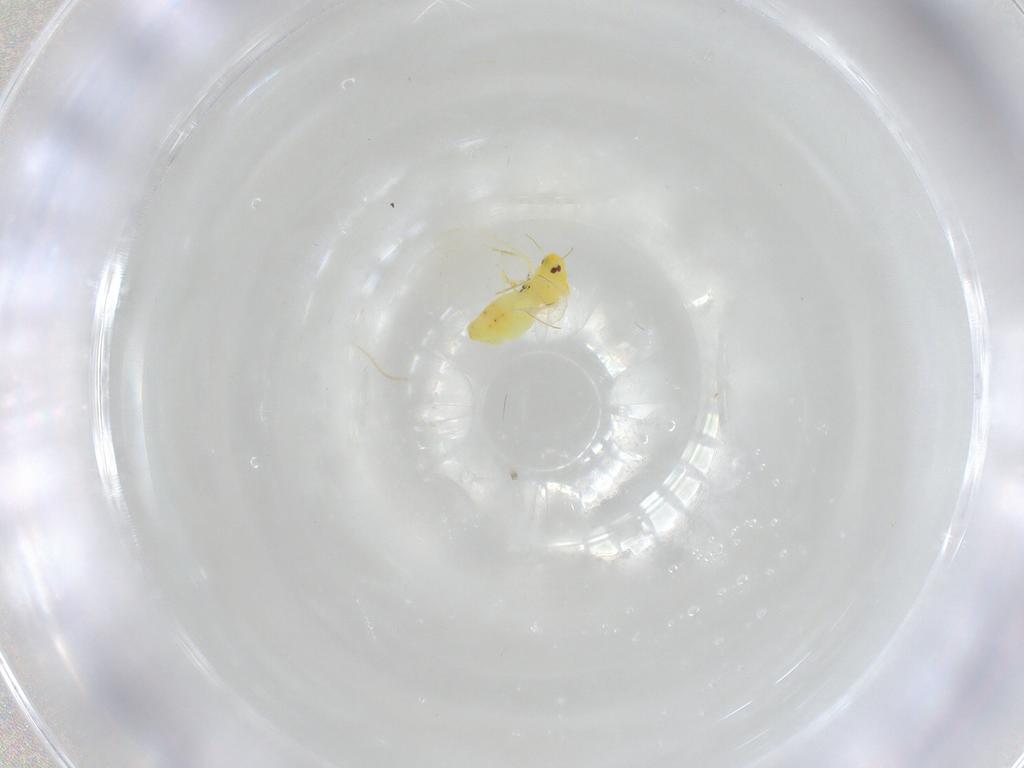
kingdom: Animalia
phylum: Arthropoda
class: Insecta
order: Hemiptera
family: Aleyrodidae
